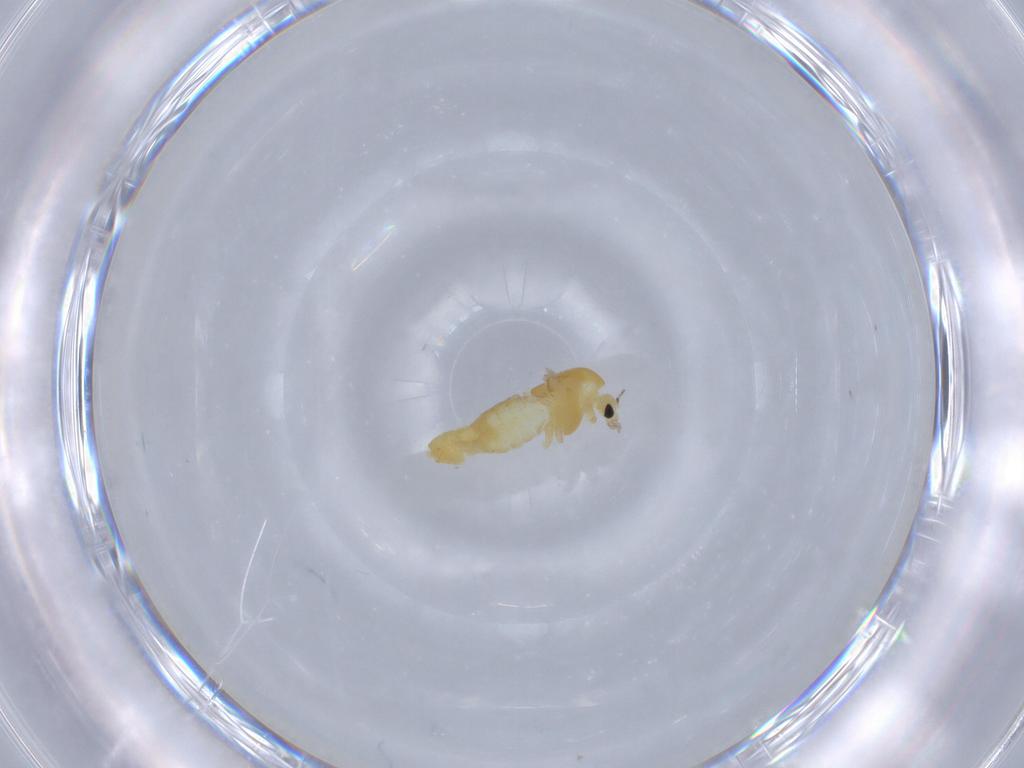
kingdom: Animalia
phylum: Arthropoda
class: Insecta
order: Diptera
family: Chironomidae
